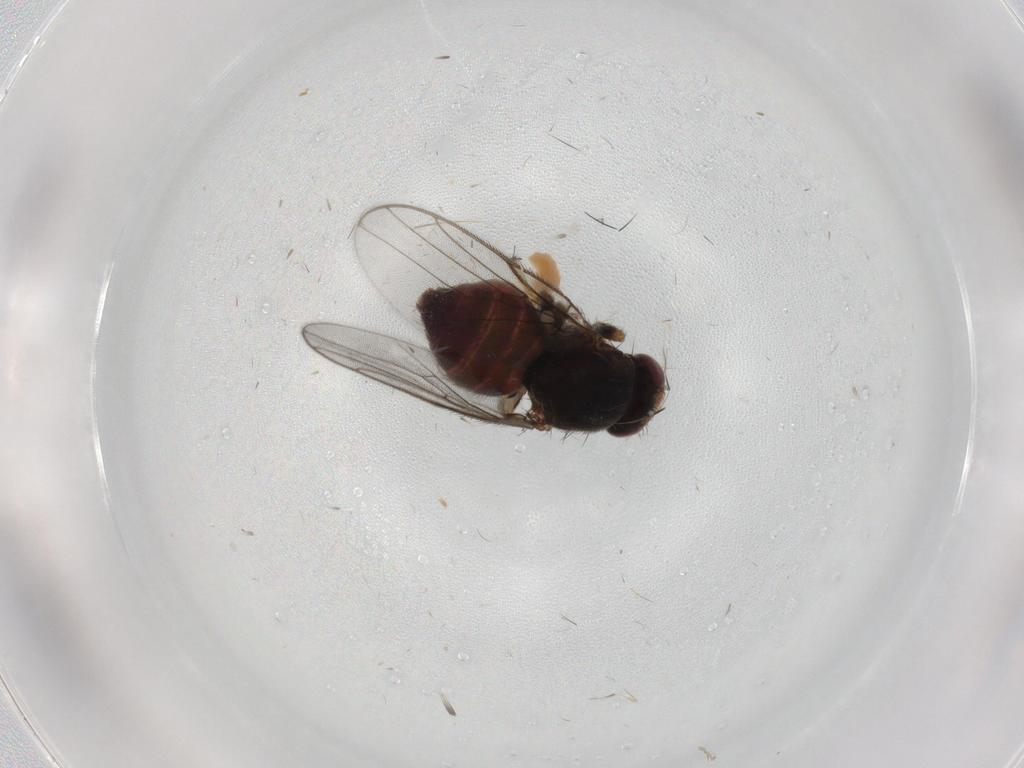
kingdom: Animalia
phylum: Arthropoda
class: Insecta
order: Diptera
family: Chloropidae
